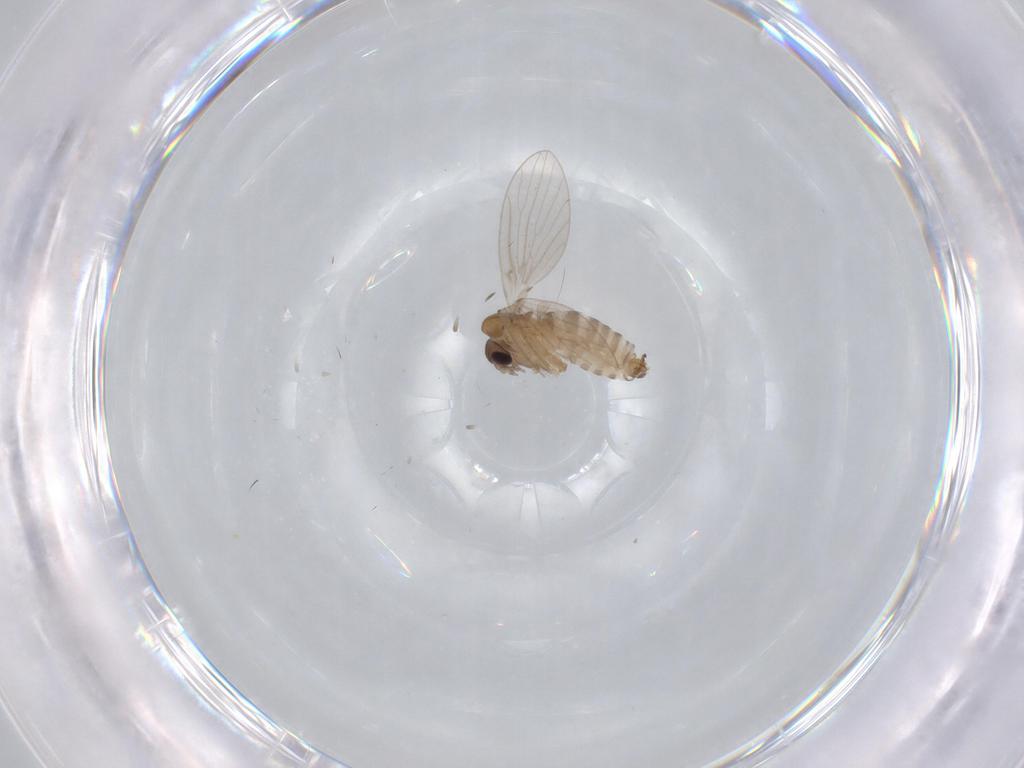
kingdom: Animalia
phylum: Arthropoda
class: Insecta
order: Diptera
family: Psychodidae
